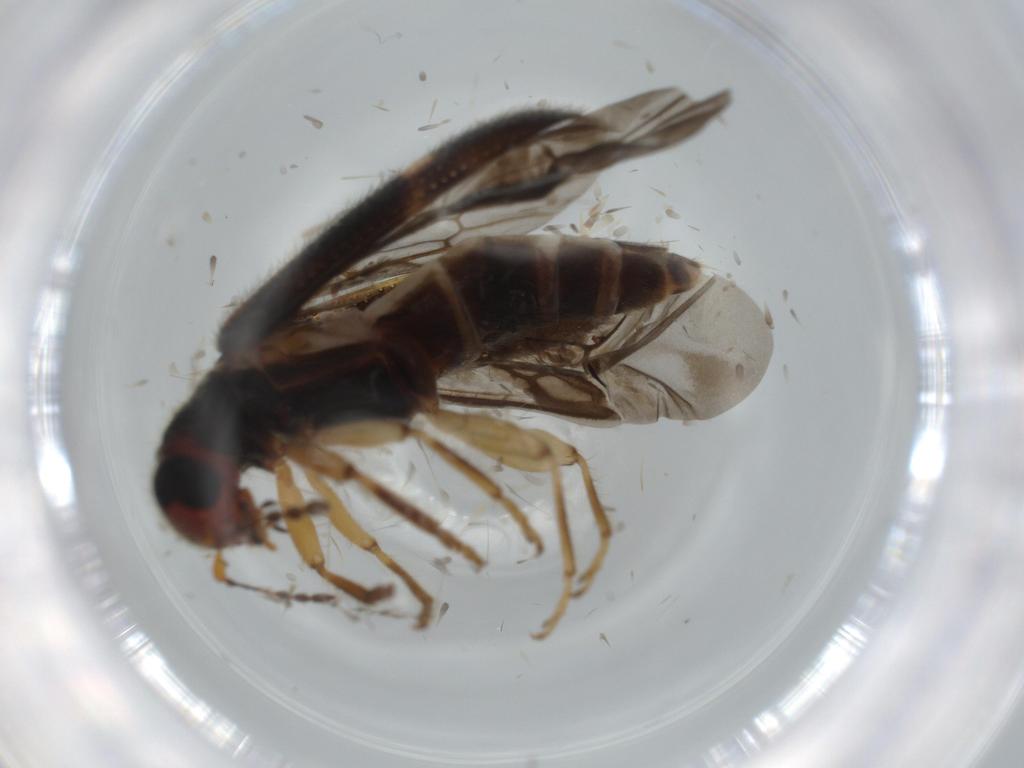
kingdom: Animalia
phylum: Arthropoda
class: Insecta
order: Coleoptera
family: Cleridae
